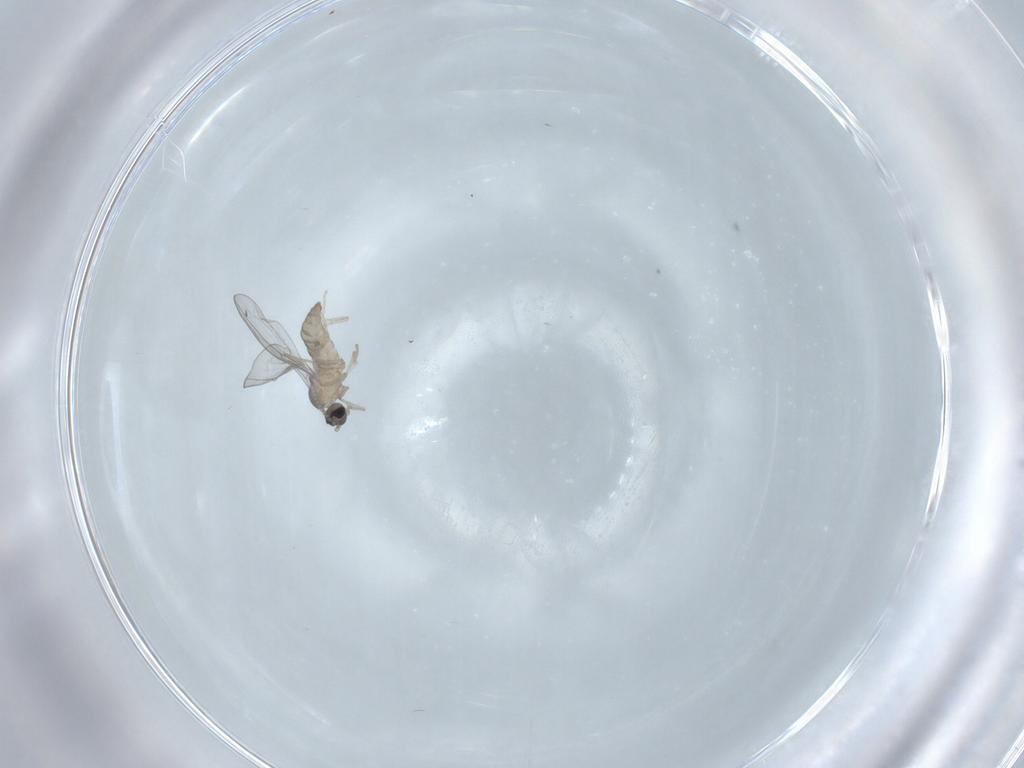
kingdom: Animalia
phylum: Arthropoda
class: Insecta
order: Diptera
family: Cecidomyiidae
